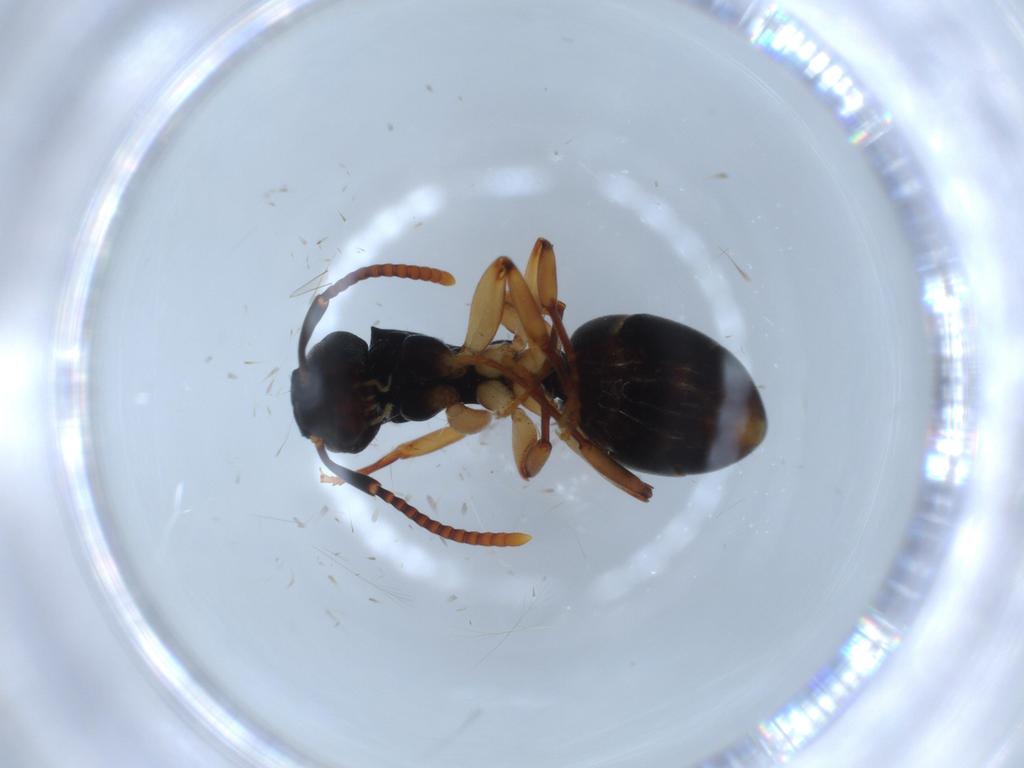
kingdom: Animalia
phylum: Arthropoda
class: Insecta
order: Hymenoptera
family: Formicidae
